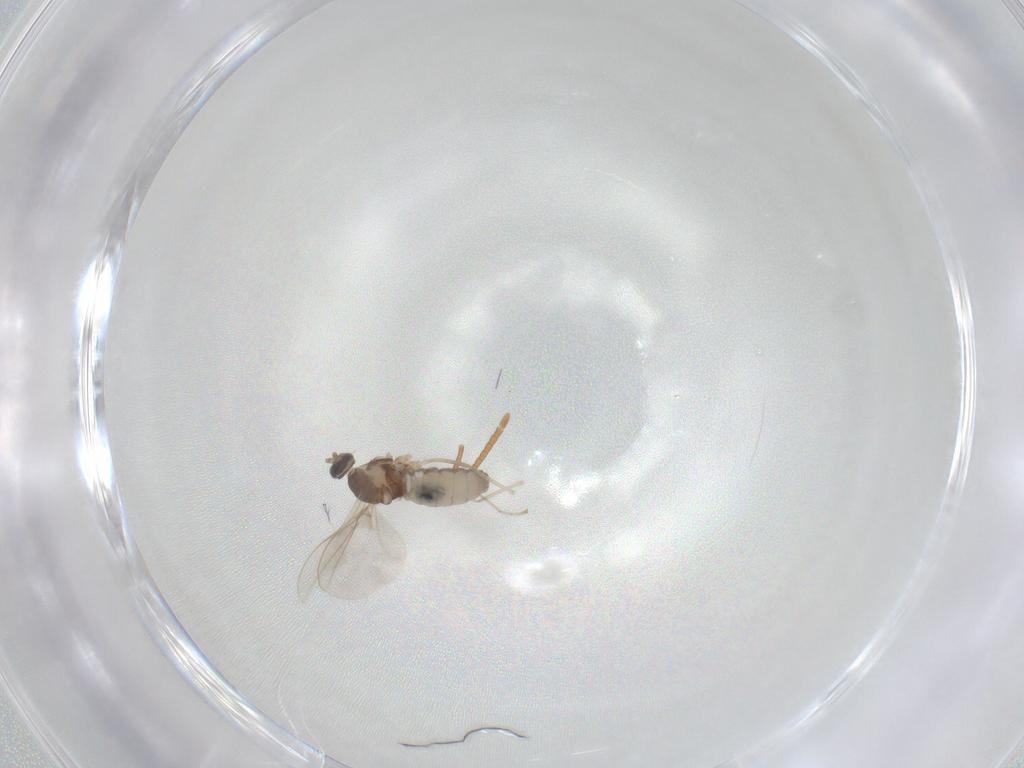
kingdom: Animalia
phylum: Arthropoda
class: Insecta
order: Diptera
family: Cecidomyiidae
